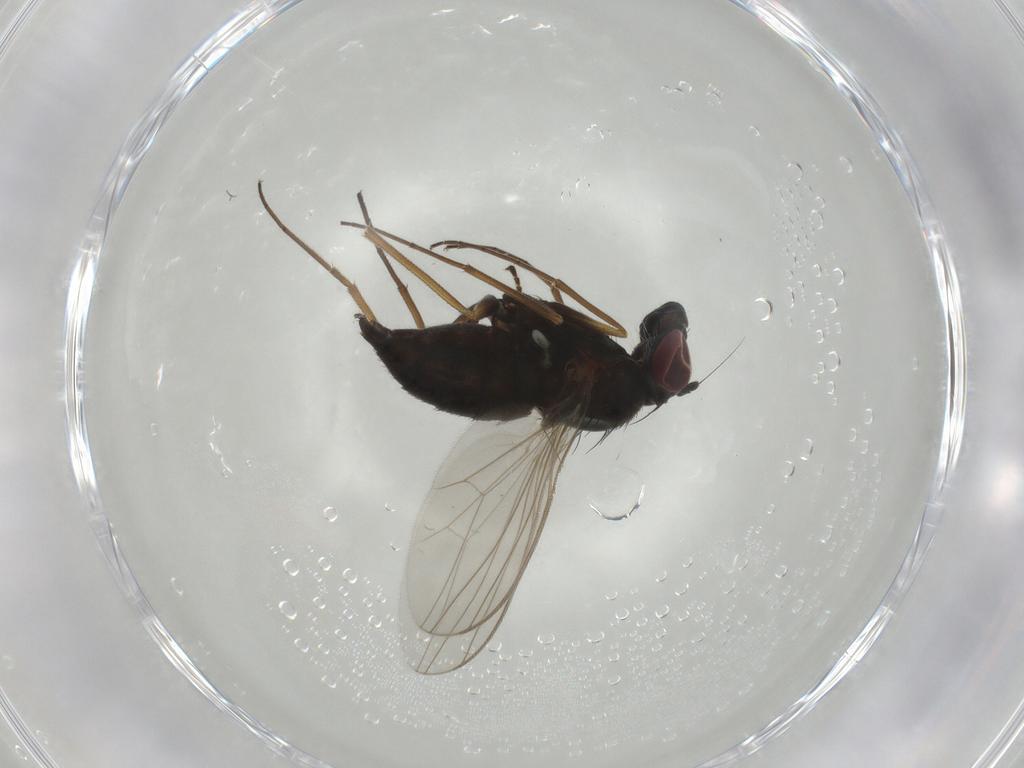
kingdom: Animalia
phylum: Arthropoda
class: Insecta
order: Diptera
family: Dolichopodidae
